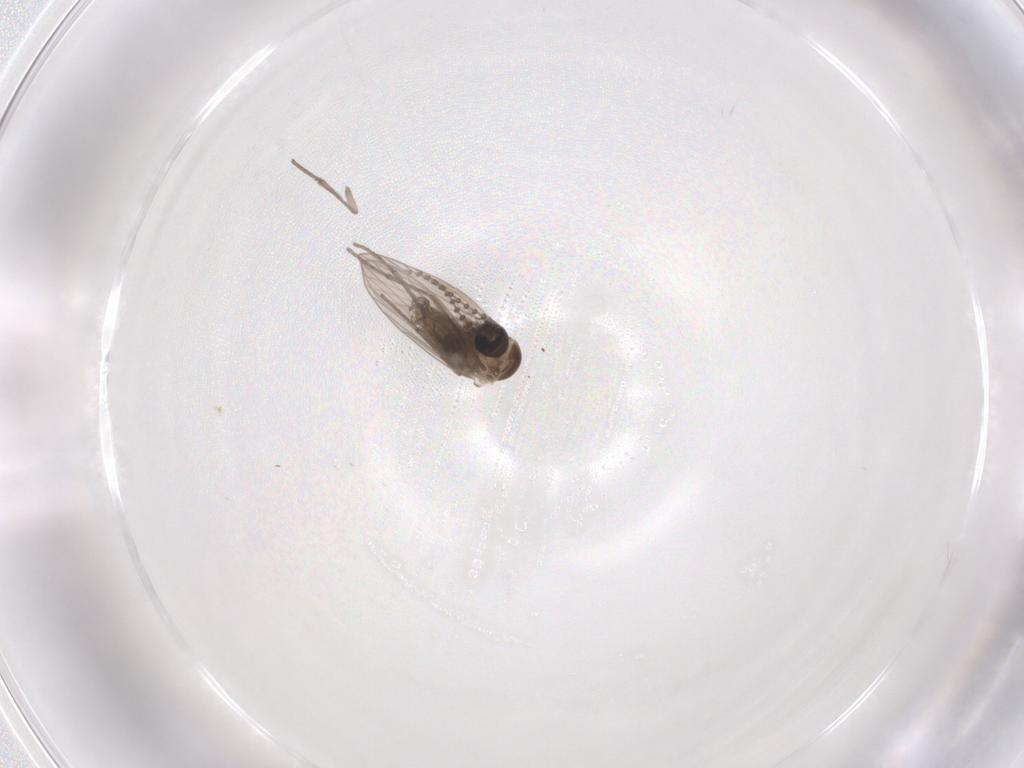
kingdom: Animalia
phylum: Arthropoda
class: Insecta
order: Diptera
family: Psychodidae
